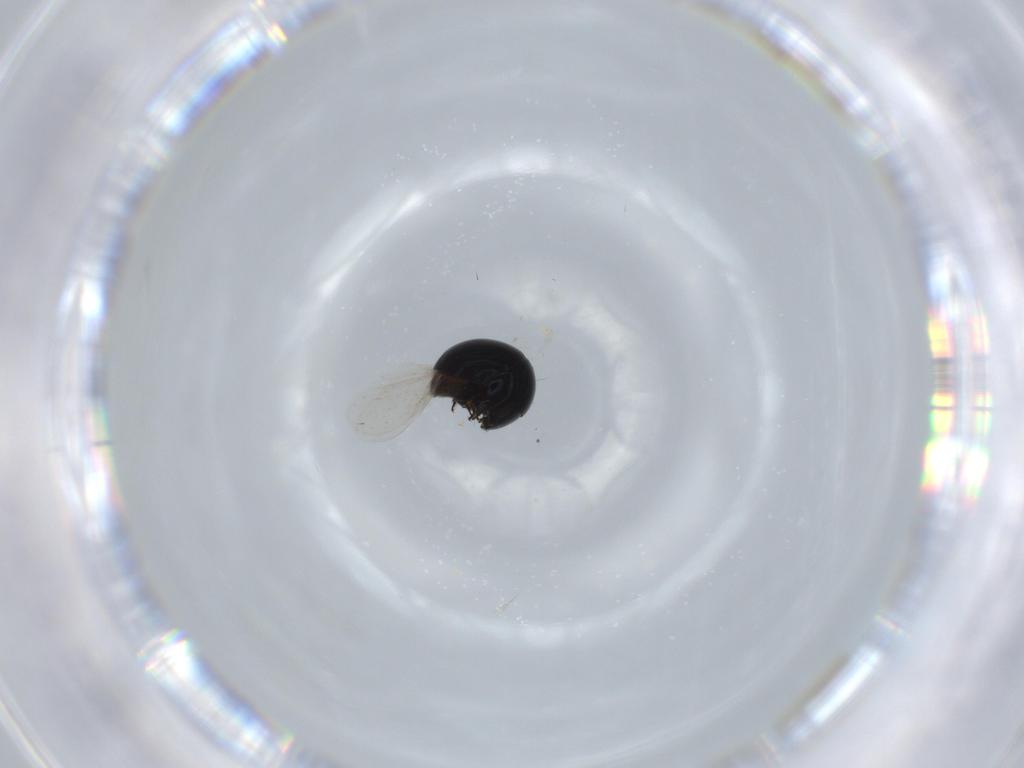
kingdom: Animalia
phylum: Arthropoda
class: Insecta
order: Coleoptera
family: Cybocephalidae
